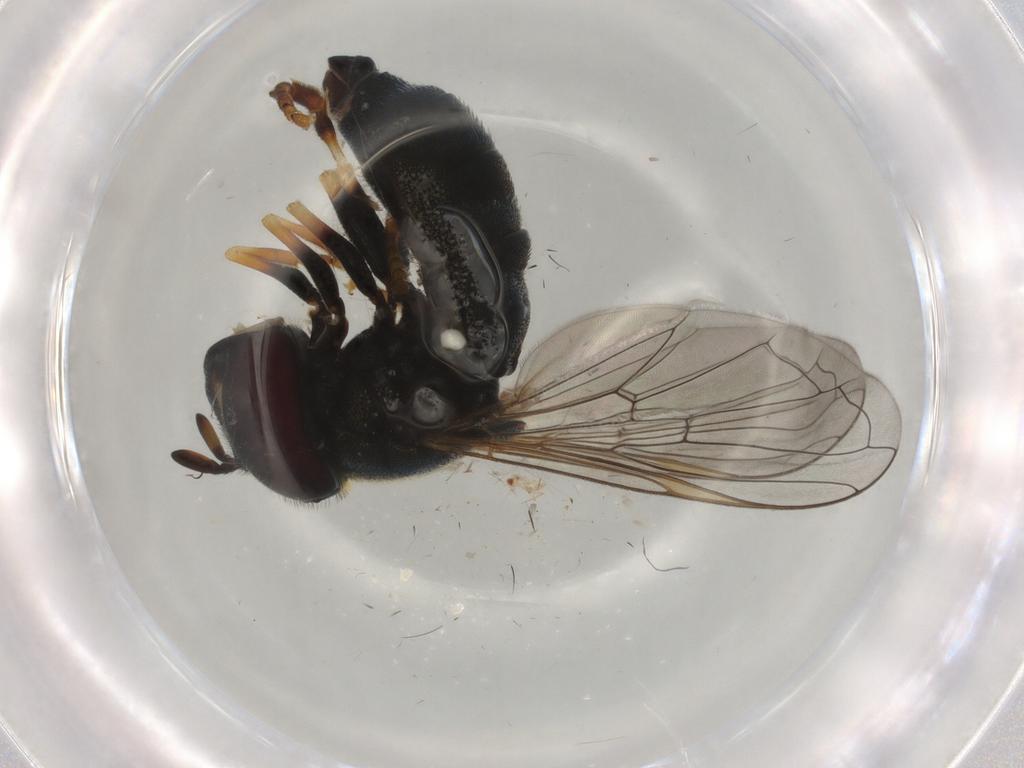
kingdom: Animalia
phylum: Arthropoda
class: Insecta
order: Diptera
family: Syrphidae
